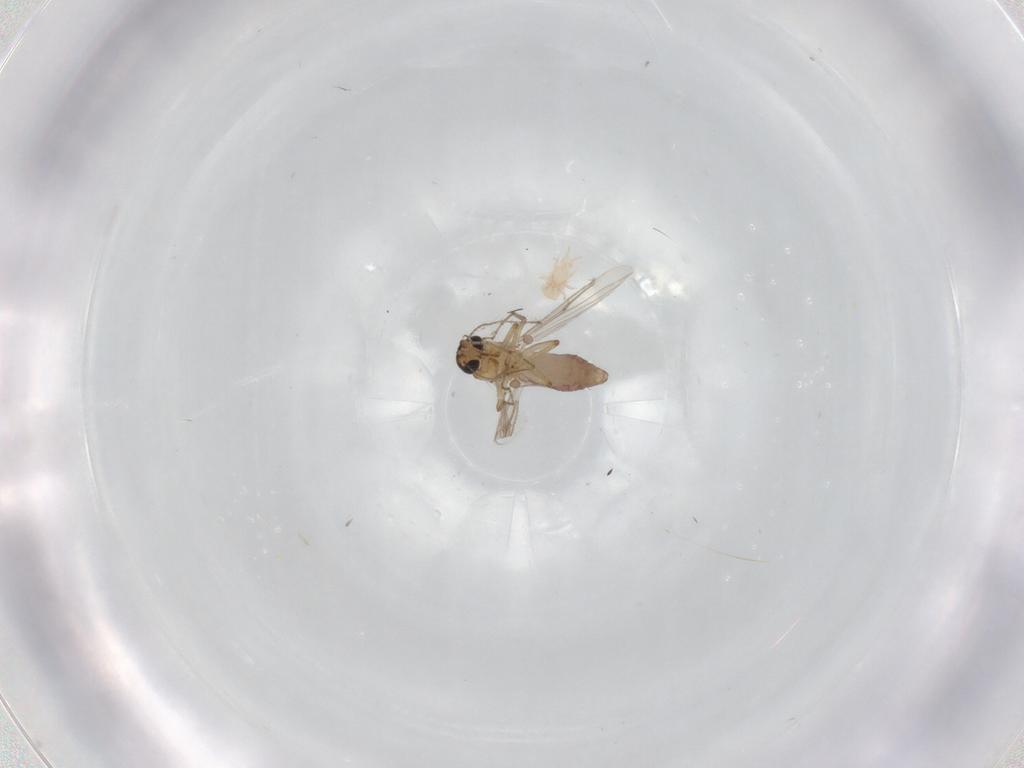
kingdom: Animalia
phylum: Arthropoda
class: Arachnida
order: Mesostigmata
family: Digamasellidae
